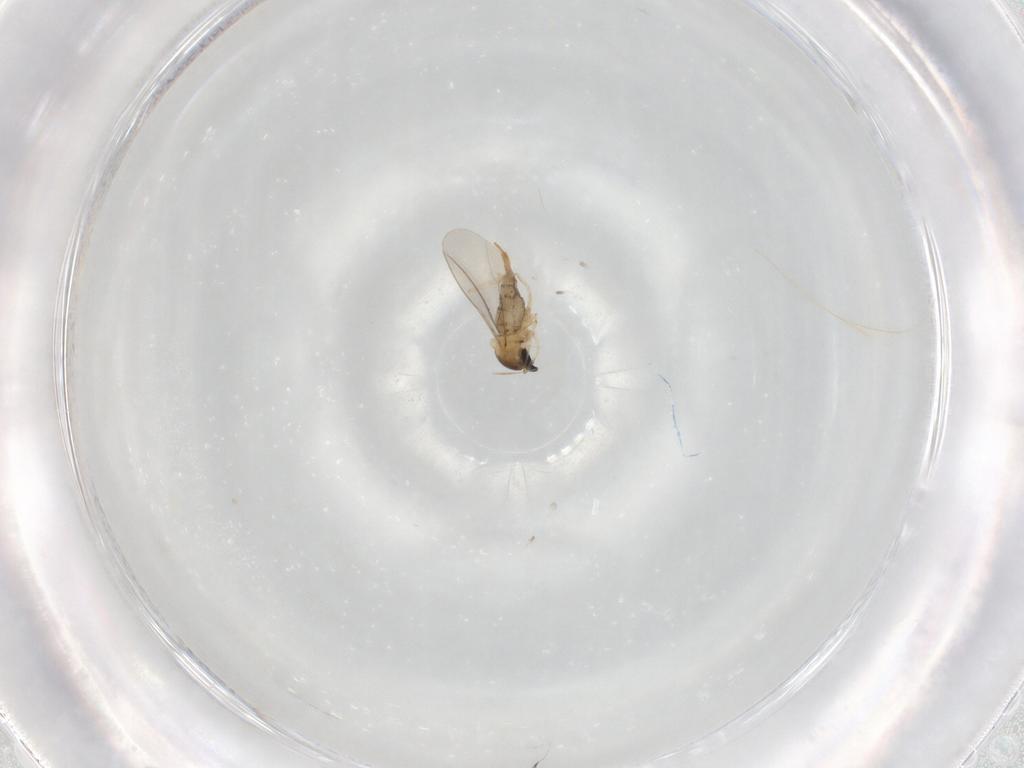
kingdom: Animalia
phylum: Arthropoda
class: Insecta
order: Diptera
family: Cecidomyiidae
